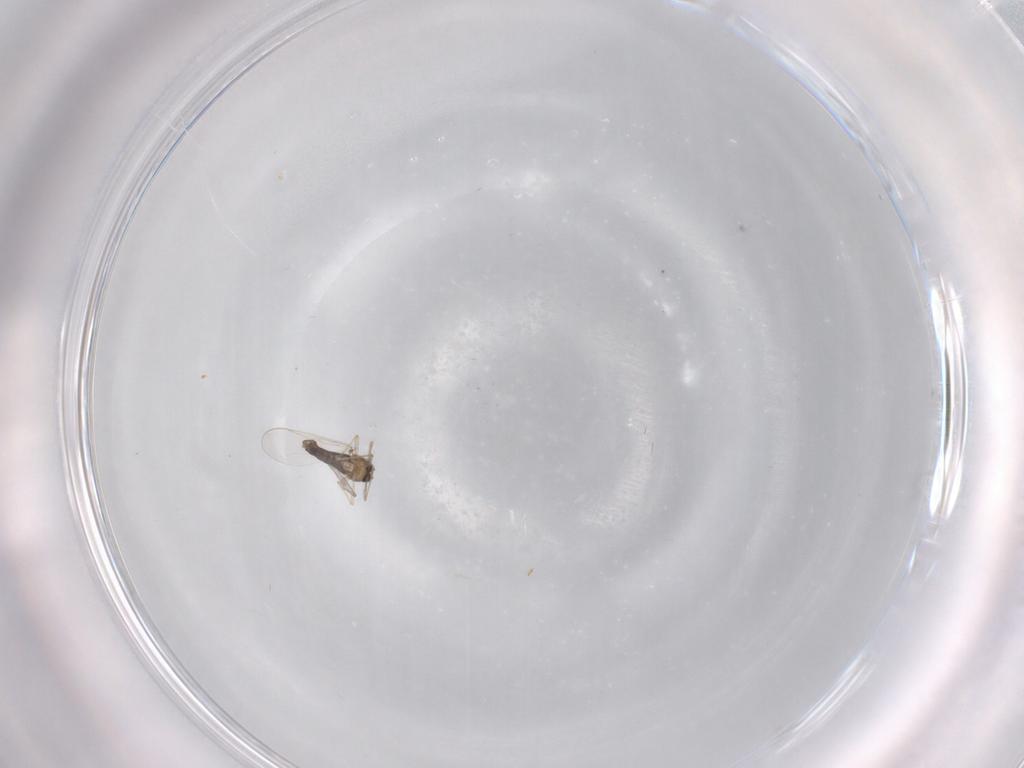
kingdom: Animalia
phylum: Arthropoda
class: Insecta
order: Diptera
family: Chironomidae
